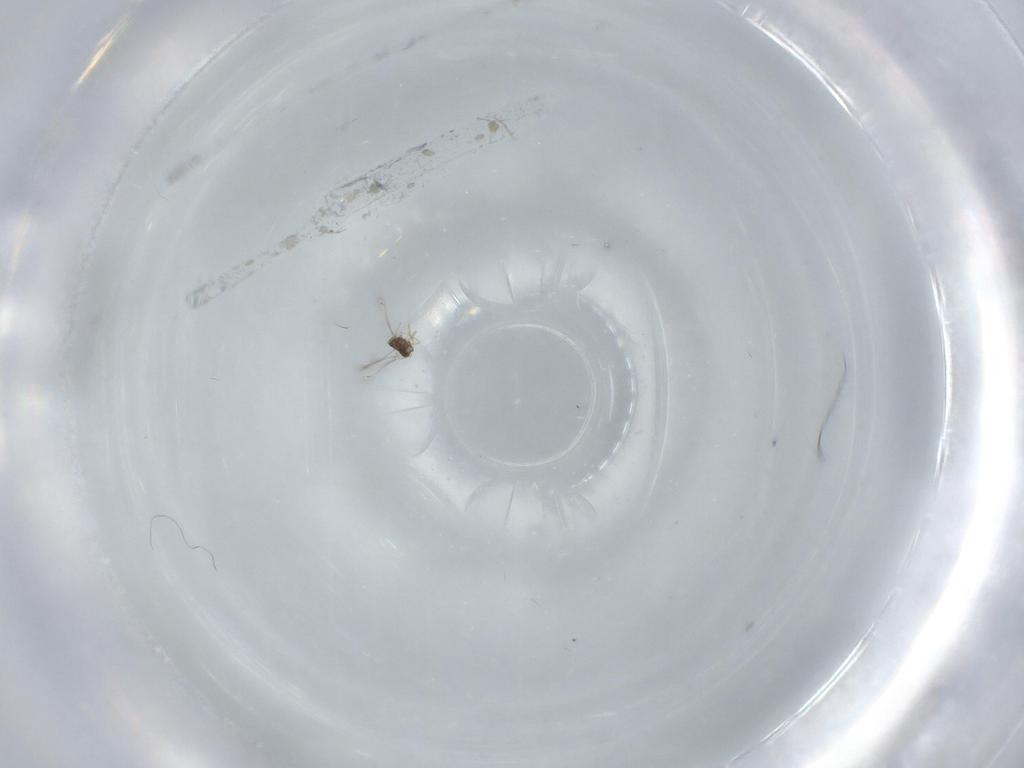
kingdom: Animalia
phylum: Arthropoda
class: Insecta
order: Hymenoptera
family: Mymaridae
